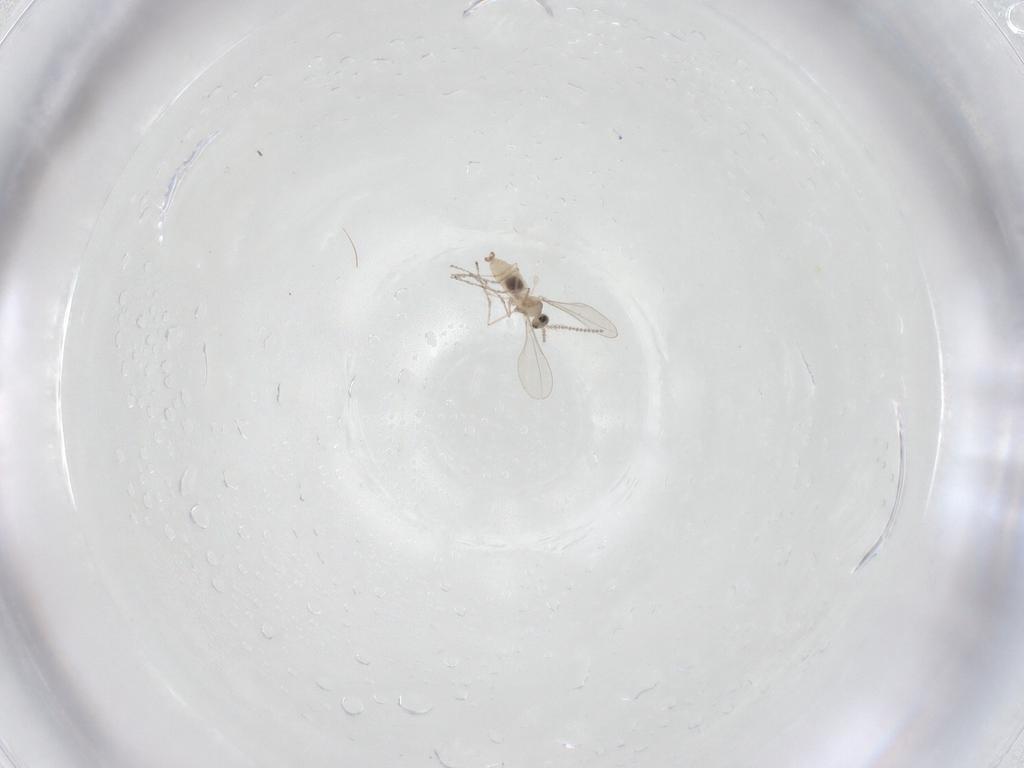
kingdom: Animalia
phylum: Arthropoda
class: Insecta
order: Diptera
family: Cecidomyiidae
